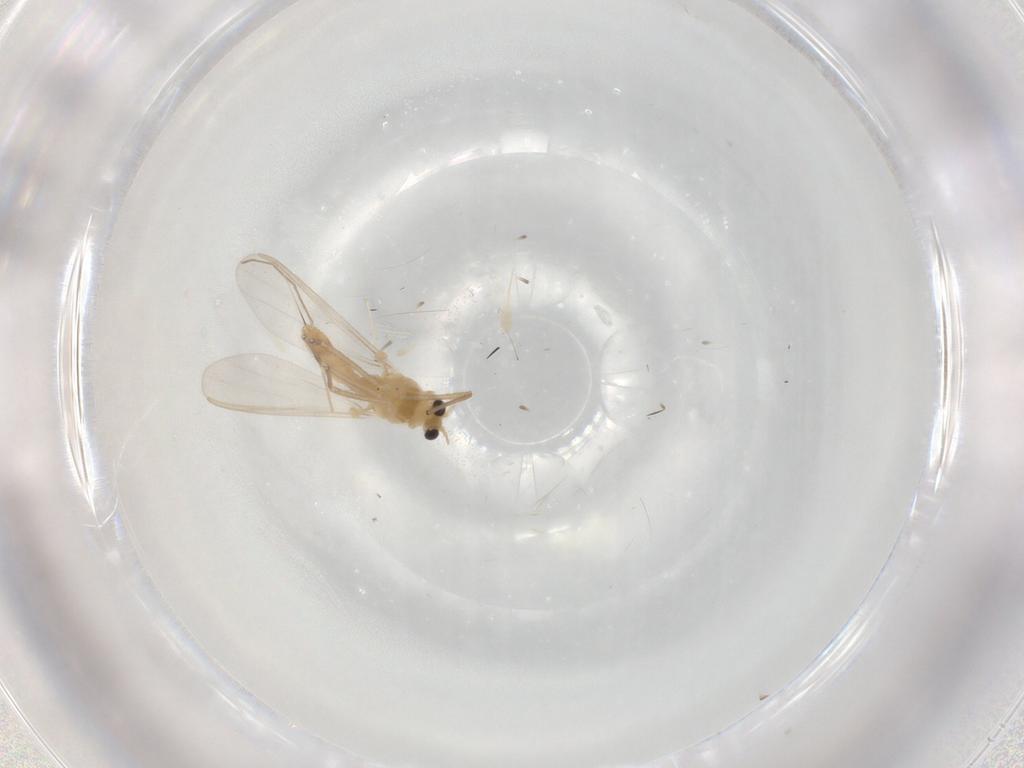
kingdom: Animalia
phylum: Arthropoda
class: Insecta
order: Diptera
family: Chironomidae
